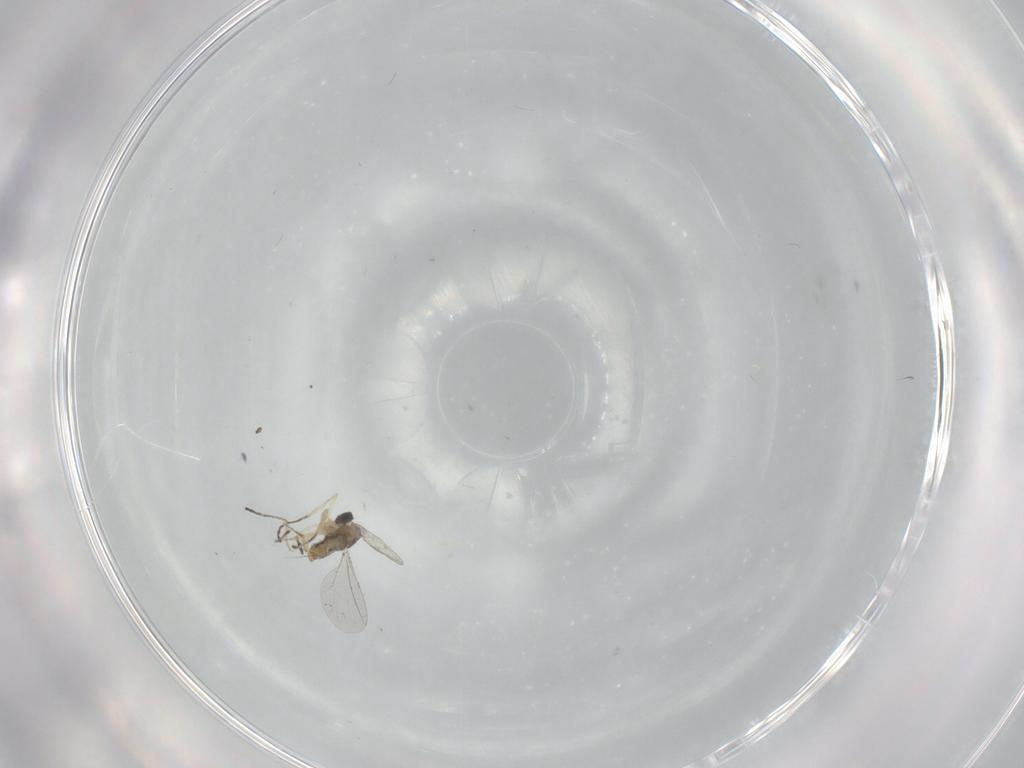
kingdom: Animalia
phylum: Arthropoda
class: Insecta
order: Diptera
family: Cecidomyiidae
